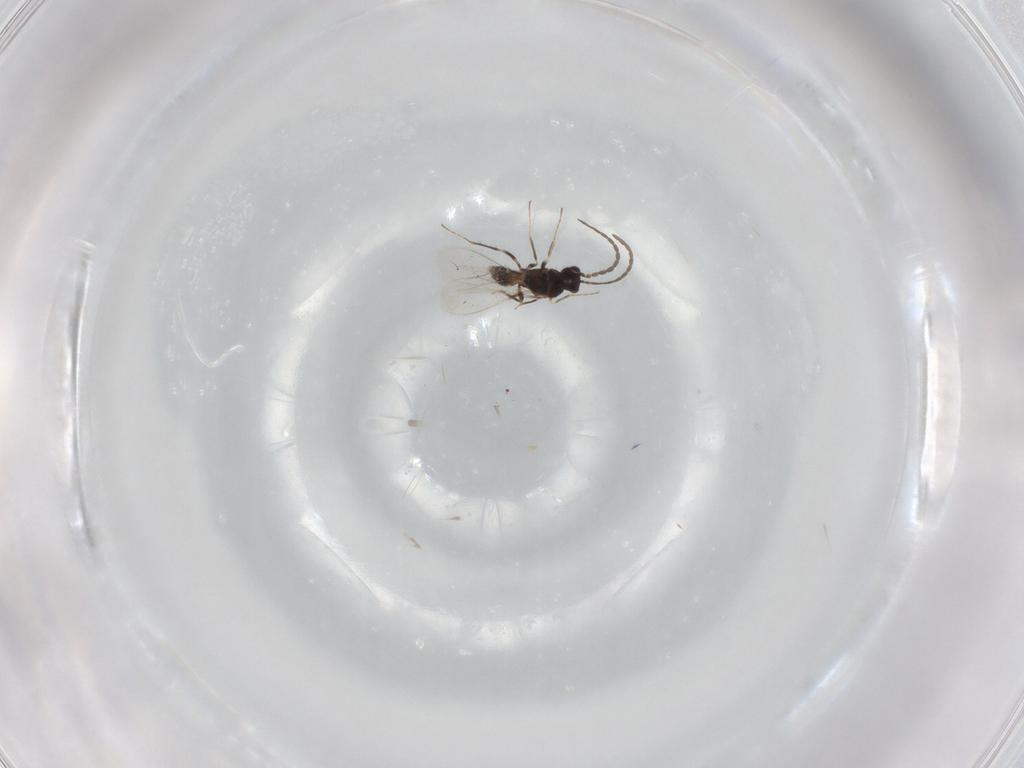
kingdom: Animalia
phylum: Arthropoda
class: Insecta
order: Hymenoptera
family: Mymaridae
